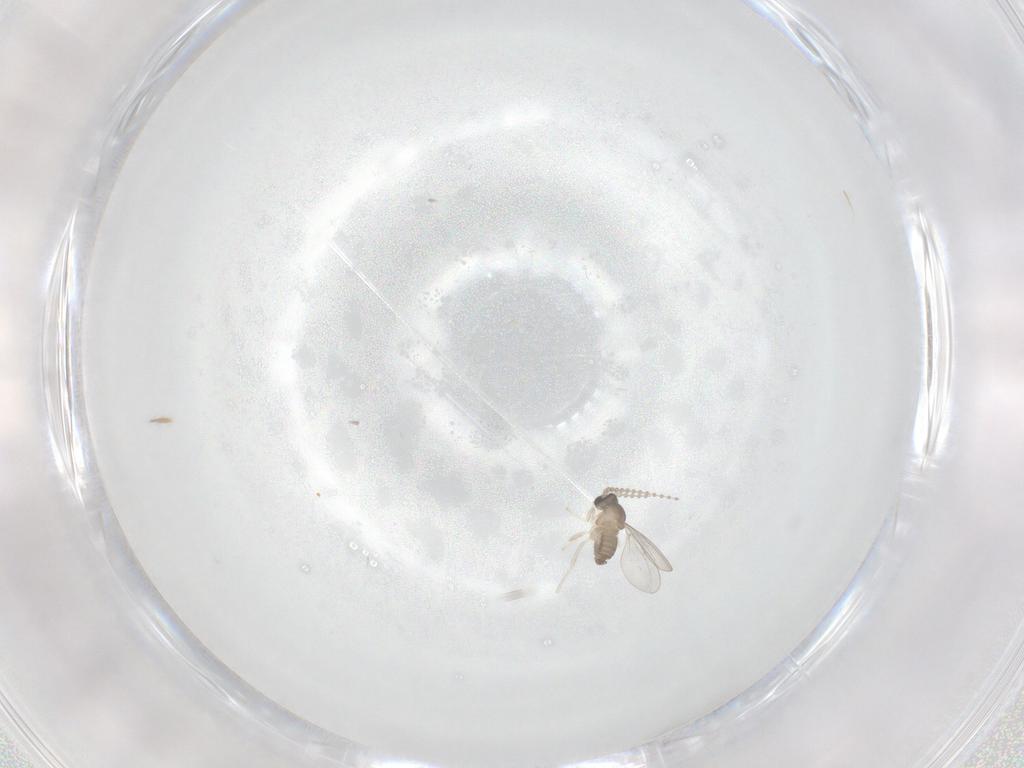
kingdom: Animalia
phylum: Arthropoda
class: Insecta
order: Diptera
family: Cecidomyiidae
